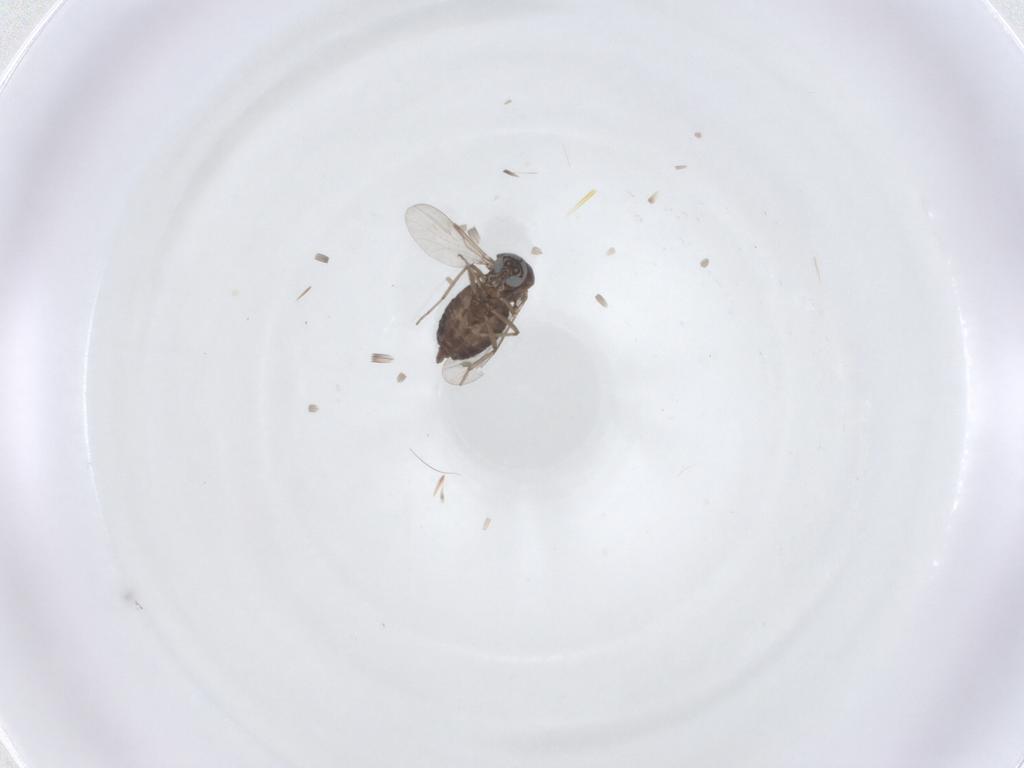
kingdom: Animalia
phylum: Arthropoda
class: Insecta
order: Diptera
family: Ceratopogonidae
